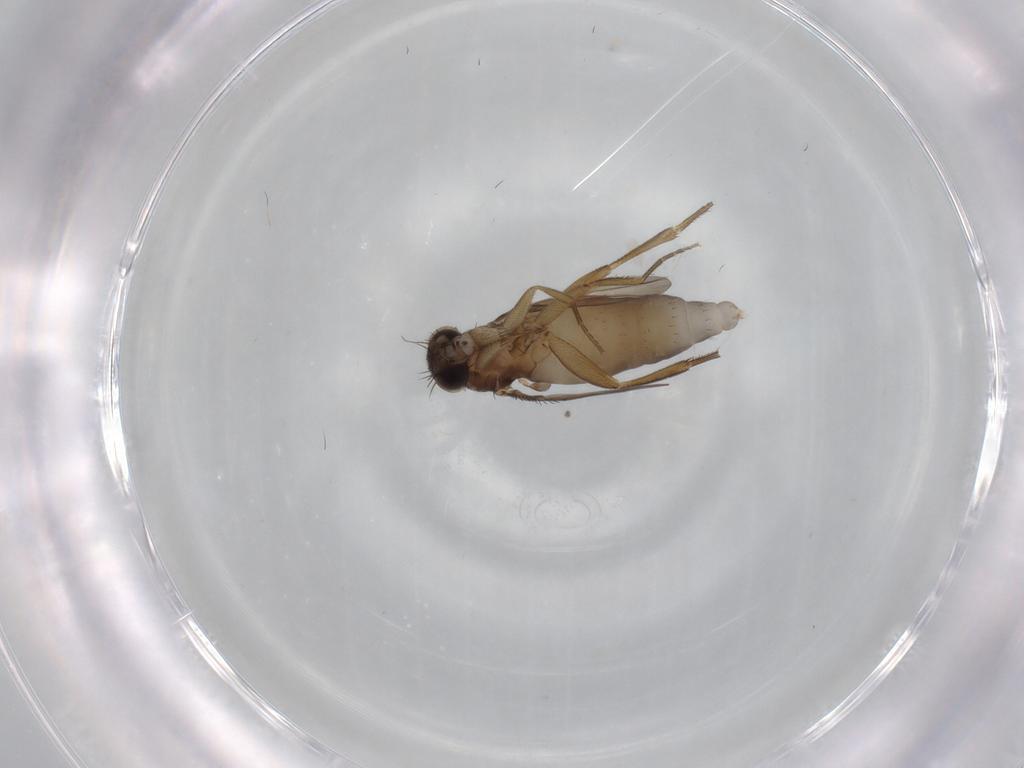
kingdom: Animalia
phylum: Arthropoda
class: Insecta
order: Diptera
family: Phoridae
